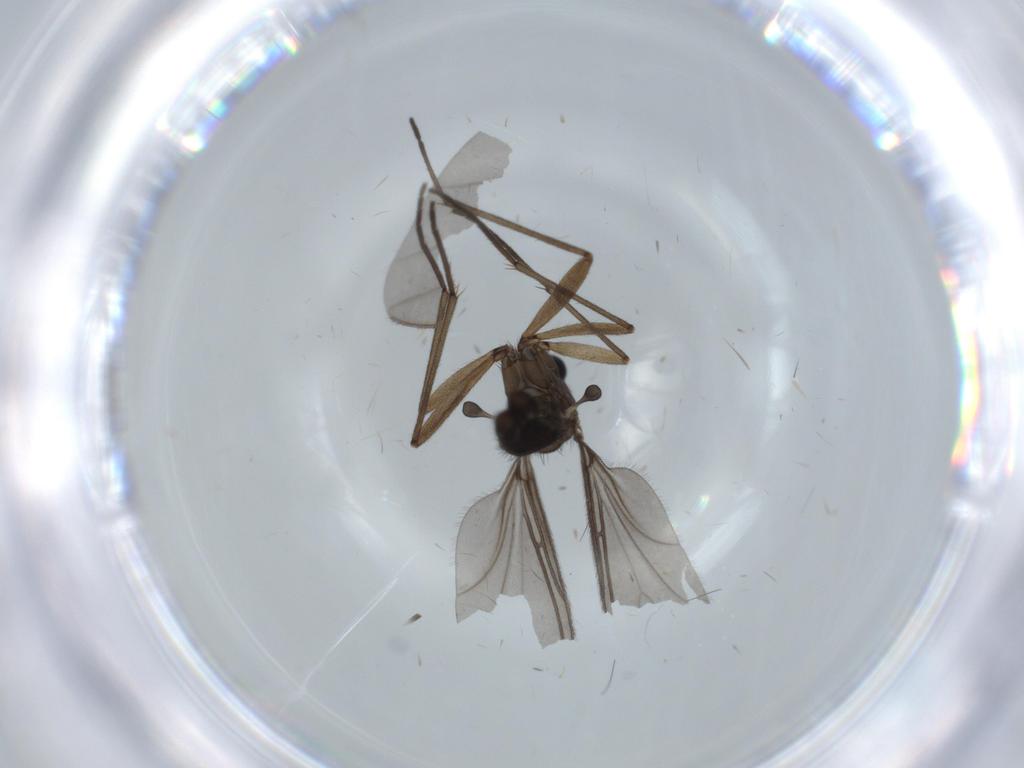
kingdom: Animalia
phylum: Arthropoda
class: Insecta
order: Diptera
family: Sciaridae
